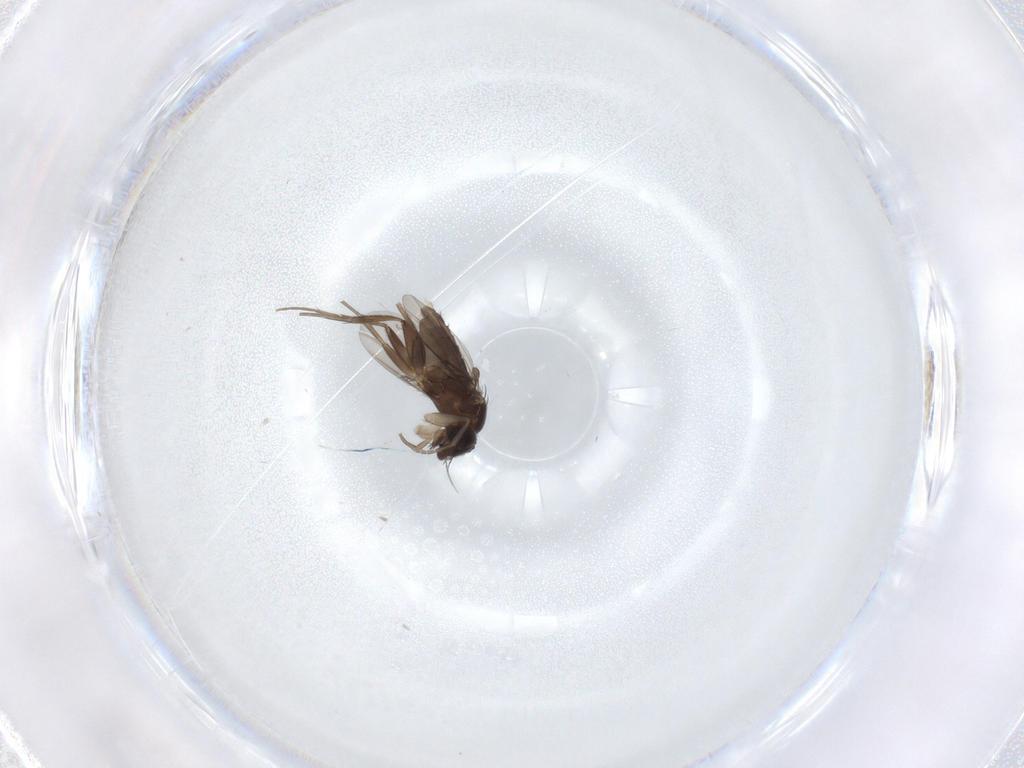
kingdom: Animalia
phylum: Arthropoda
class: Insecta
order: Diptera
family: Phoridae
